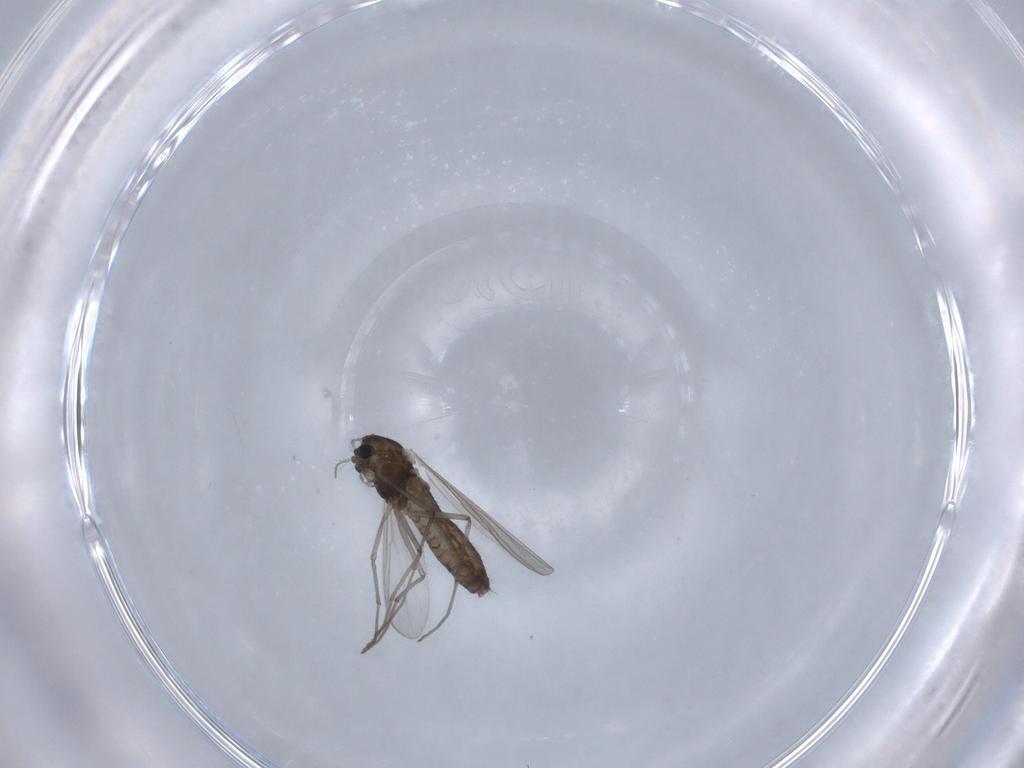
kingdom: Animalia
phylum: Arthropoda
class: Insecta
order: Diptera
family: Chironomidae
